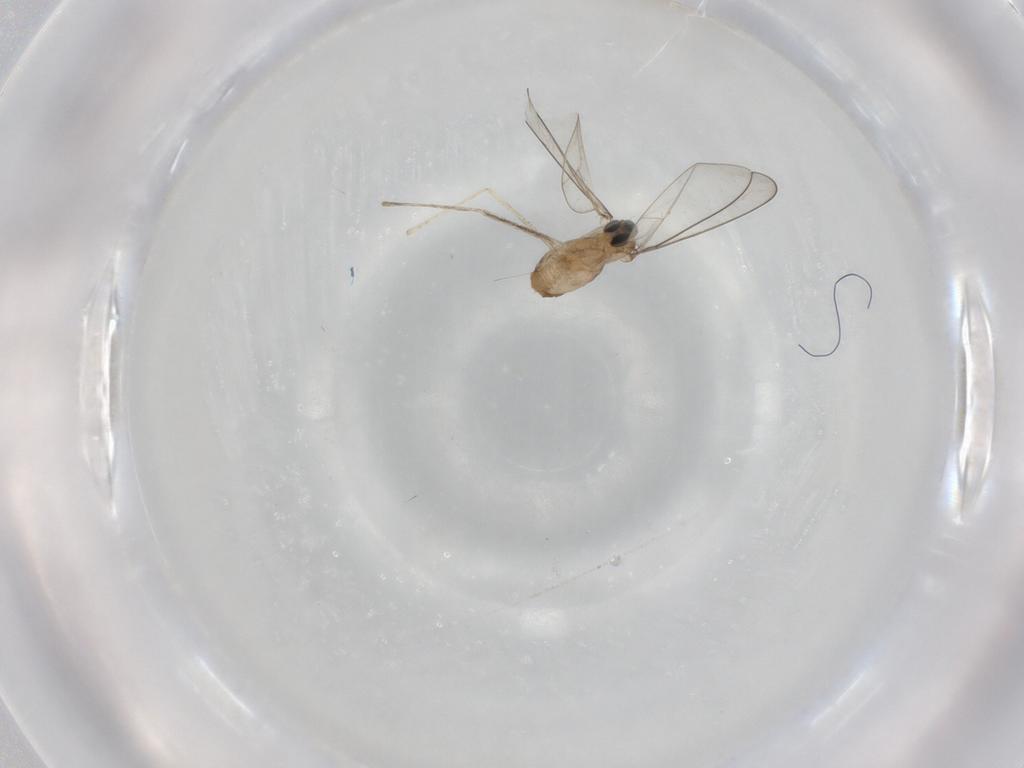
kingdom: Animalia
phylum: Arthropoda
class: Insecta
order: Diptera
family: Cecidomyiidae
